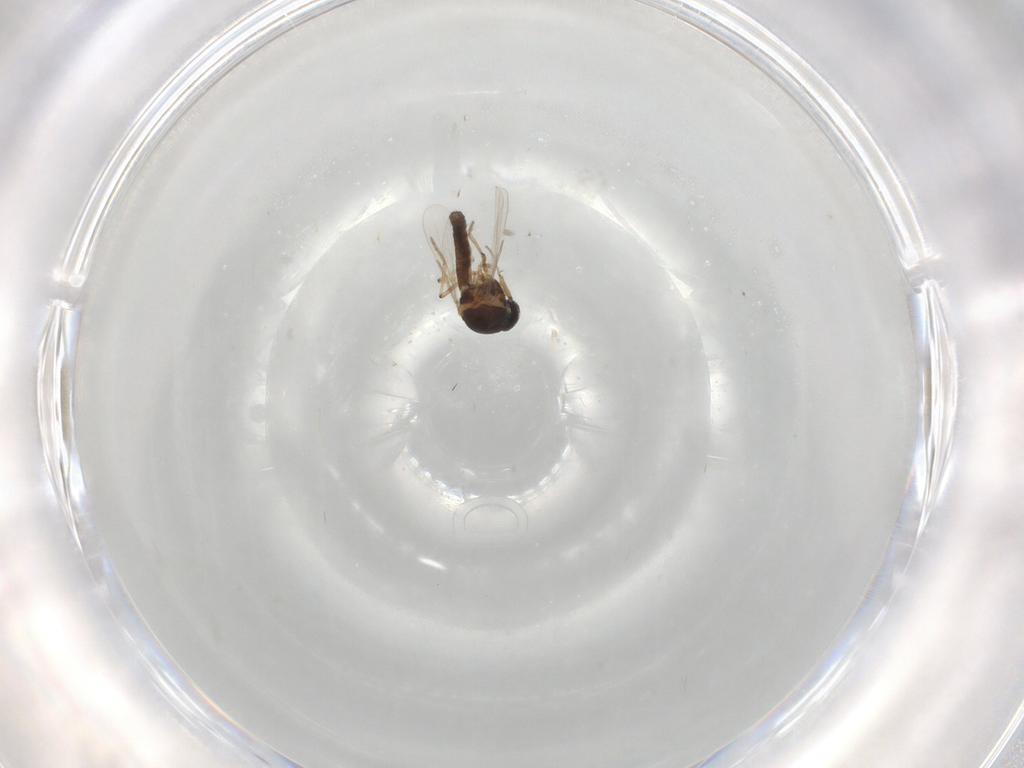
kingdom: Animalia
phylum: Arthropoda
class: Insecta
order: Diptera
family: Ceratopogonidae
